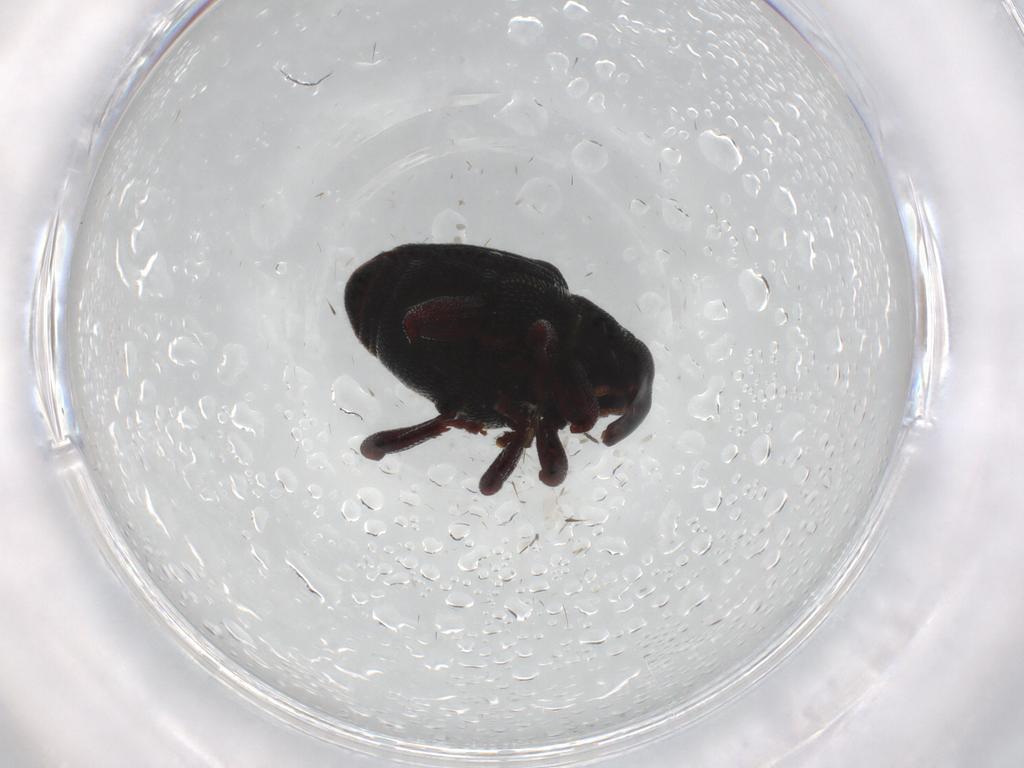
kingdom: Animalia
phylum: Arthropoda
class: Insecta
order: Coleoptera
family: Curculionidae
